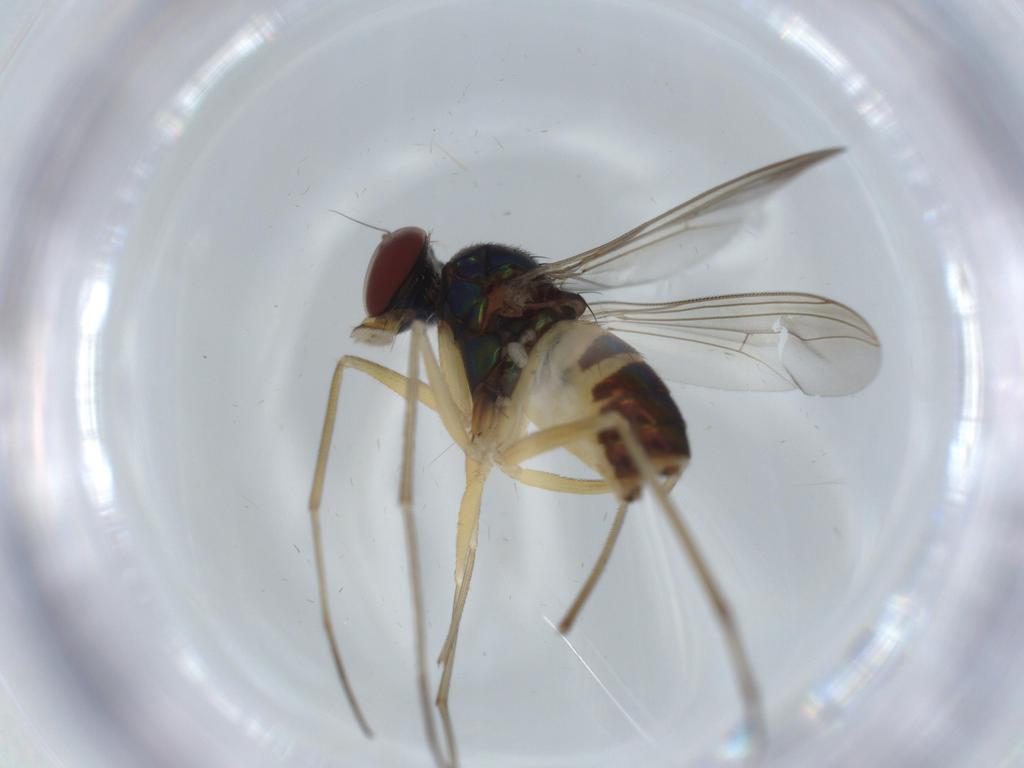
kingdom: Animalia
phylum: Arthropoda
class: Insecta
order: Diptera
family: Dolichopodidae
